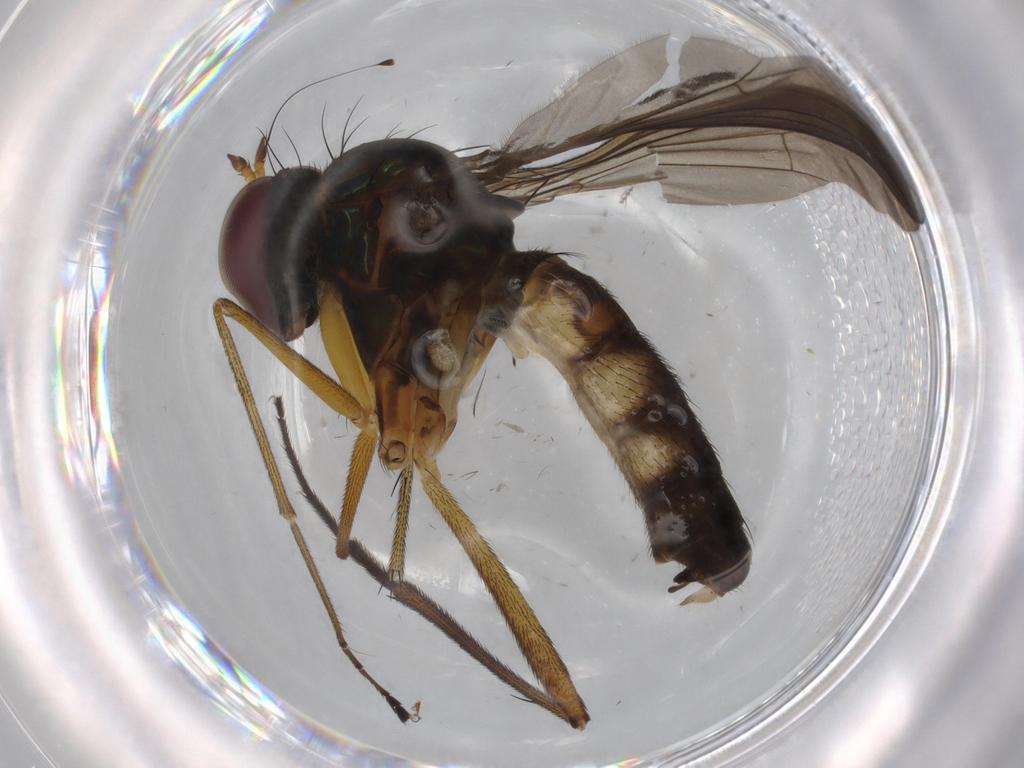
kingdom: Animalia
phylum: Arthropoda
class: Insecta
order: Diptera
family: Dolichopodidae
